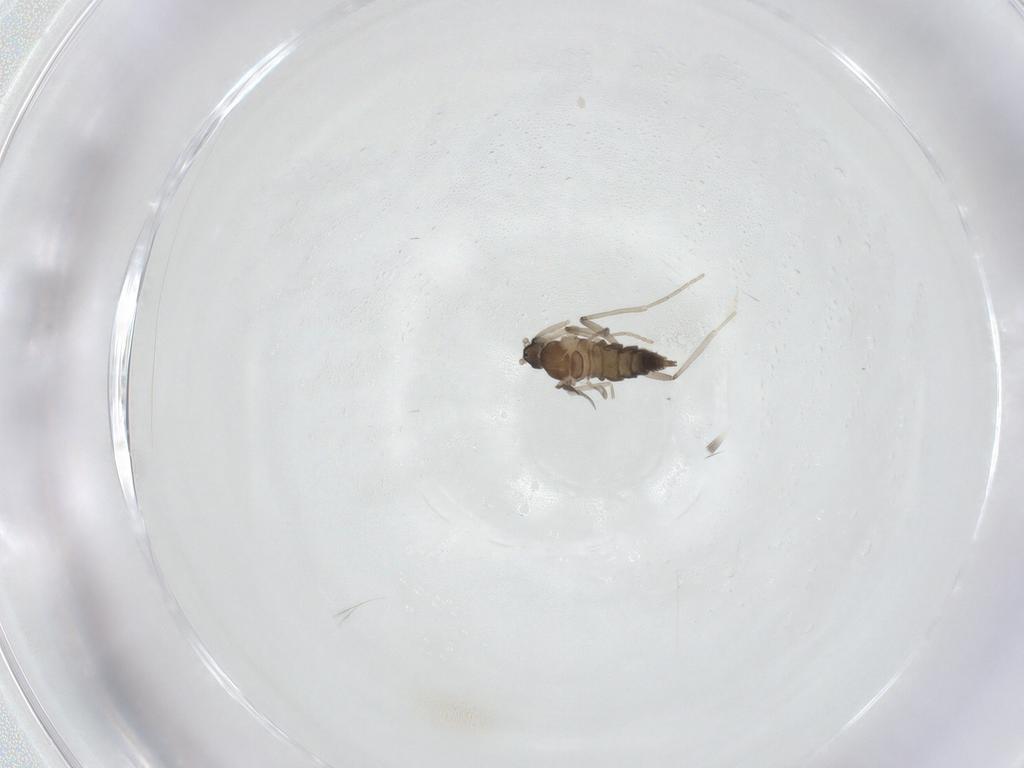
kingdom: Animalia
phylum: Arthropoda
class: Insecta
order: Diptera
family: Cecidomyiidae
